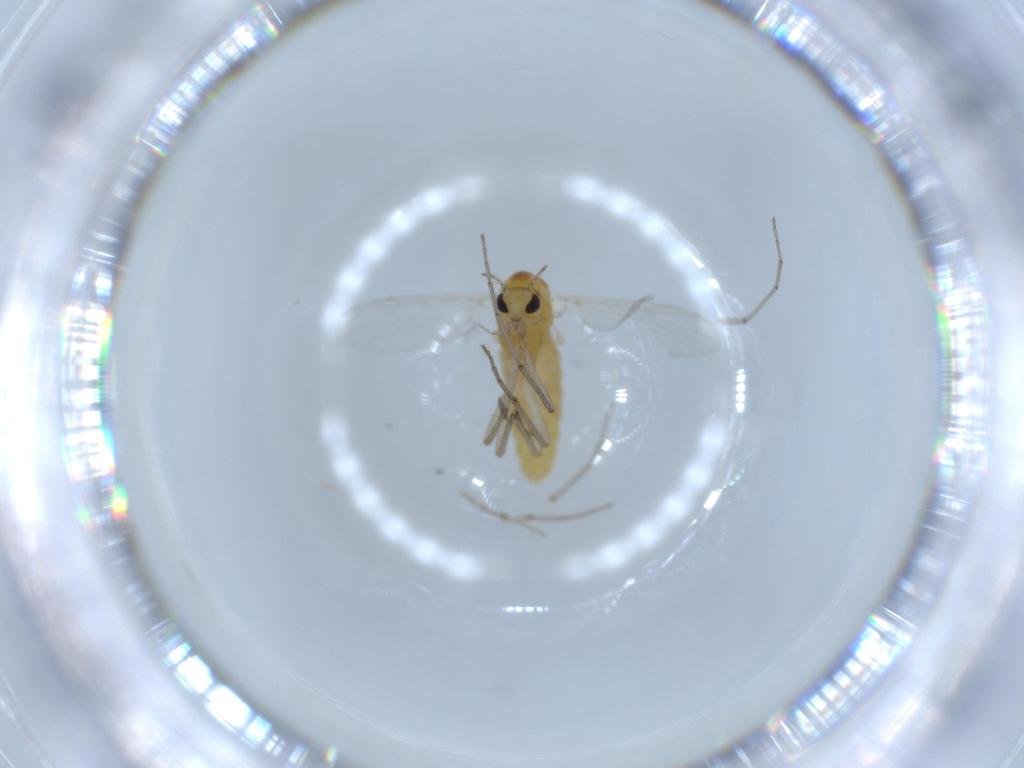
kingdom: Animalia
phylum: Arthropoda
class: Insecta
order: Diptera
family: Chironomidae
